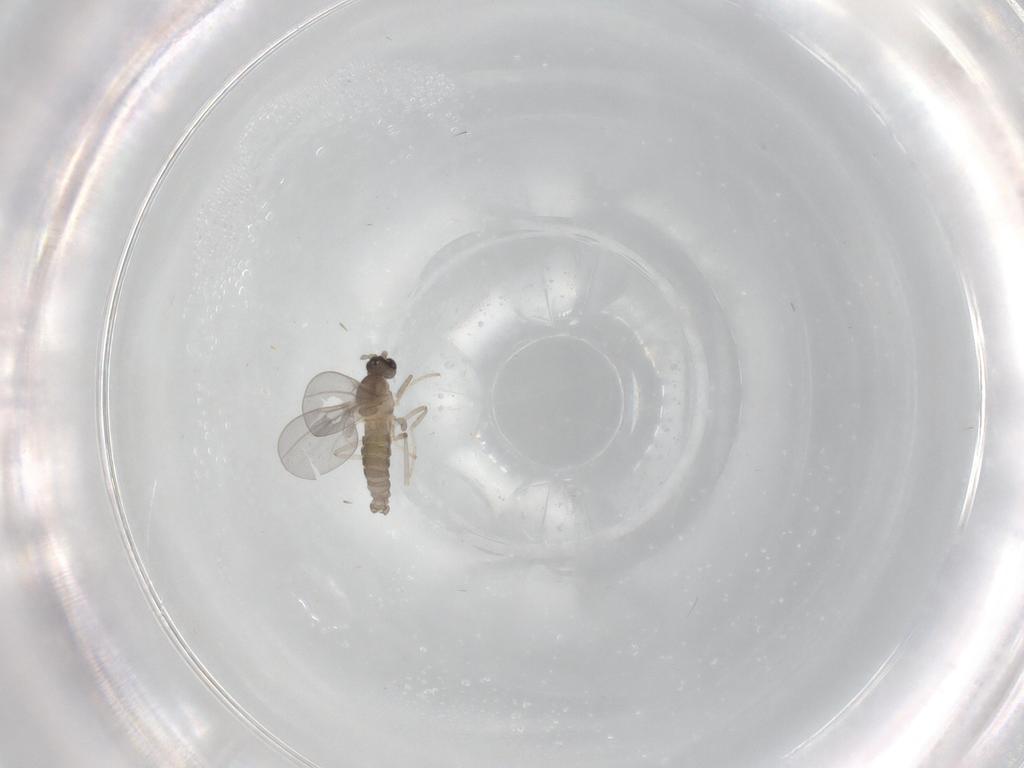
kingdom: Animalia
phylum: Arthropoda
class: Insecta
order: Diptera
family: Cecidomyiidae
